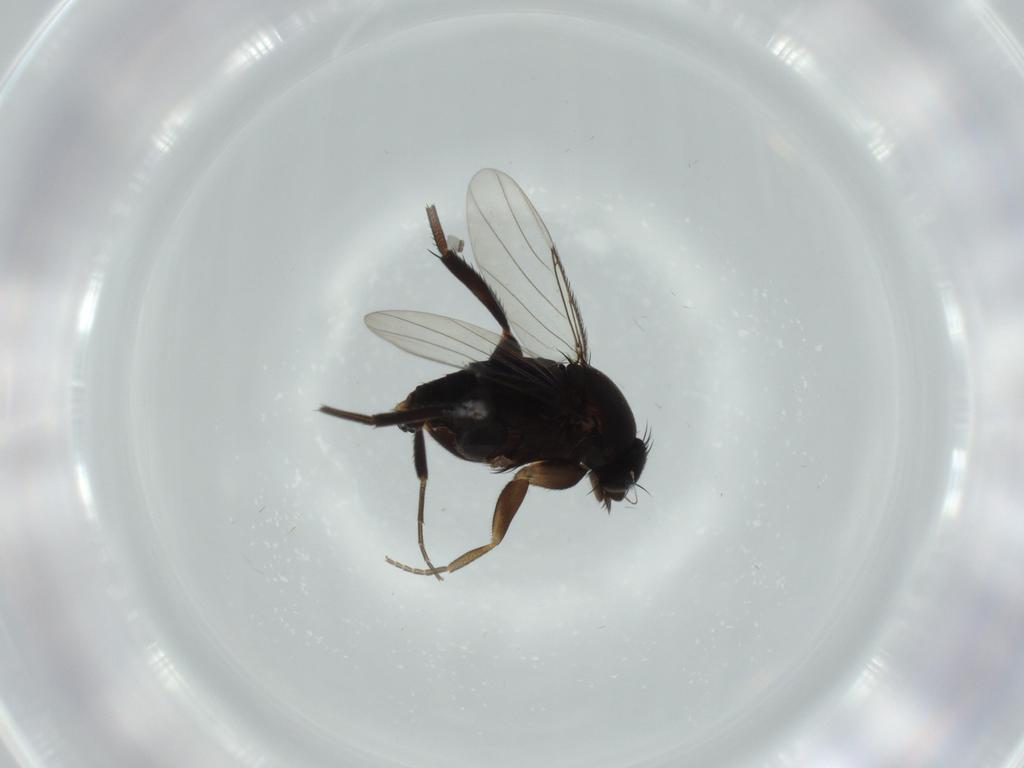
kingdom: Animalia
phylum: Arthropoda
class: Insecta
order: Diptera
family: Phoridae
